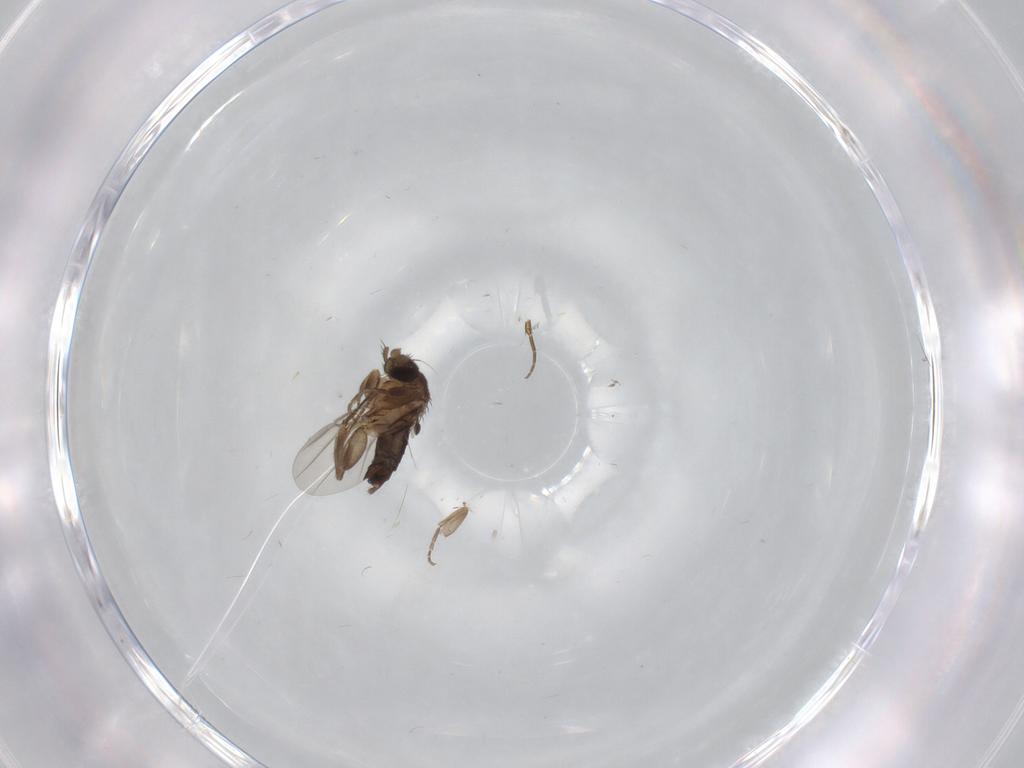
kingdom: Animalia
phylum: Arthropoda
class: Insecta
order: Diptera
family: Phoridae
